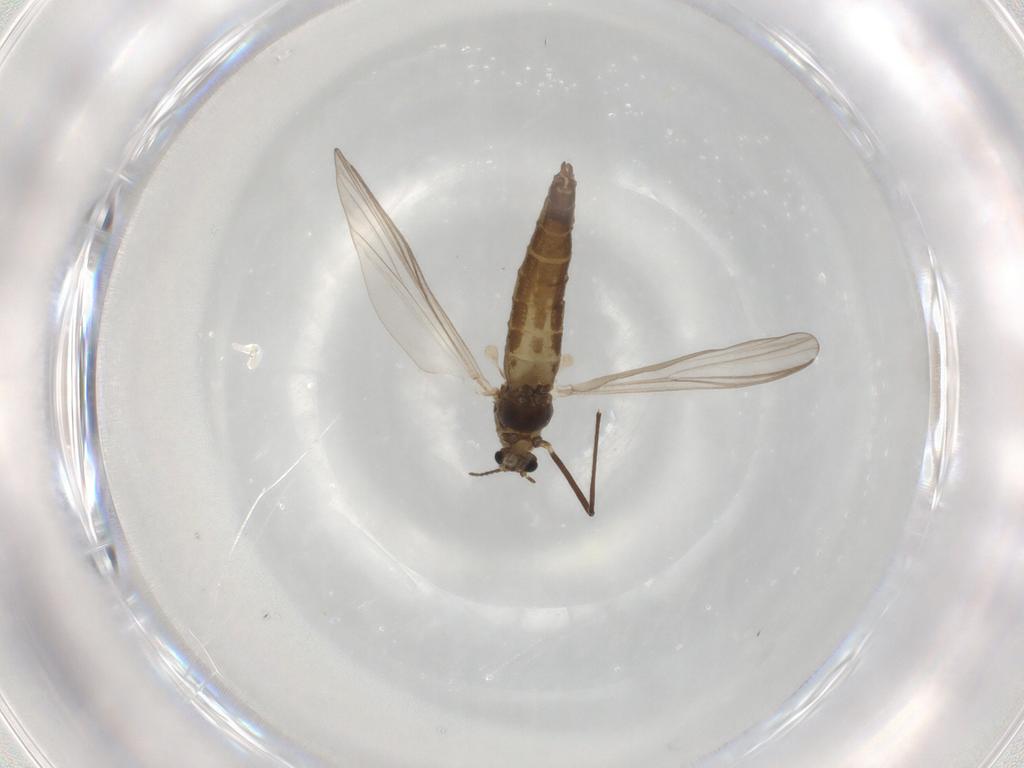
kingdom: Animalia
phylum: Arthropoda
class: Insecta
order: Diptera
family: Chironomidae
